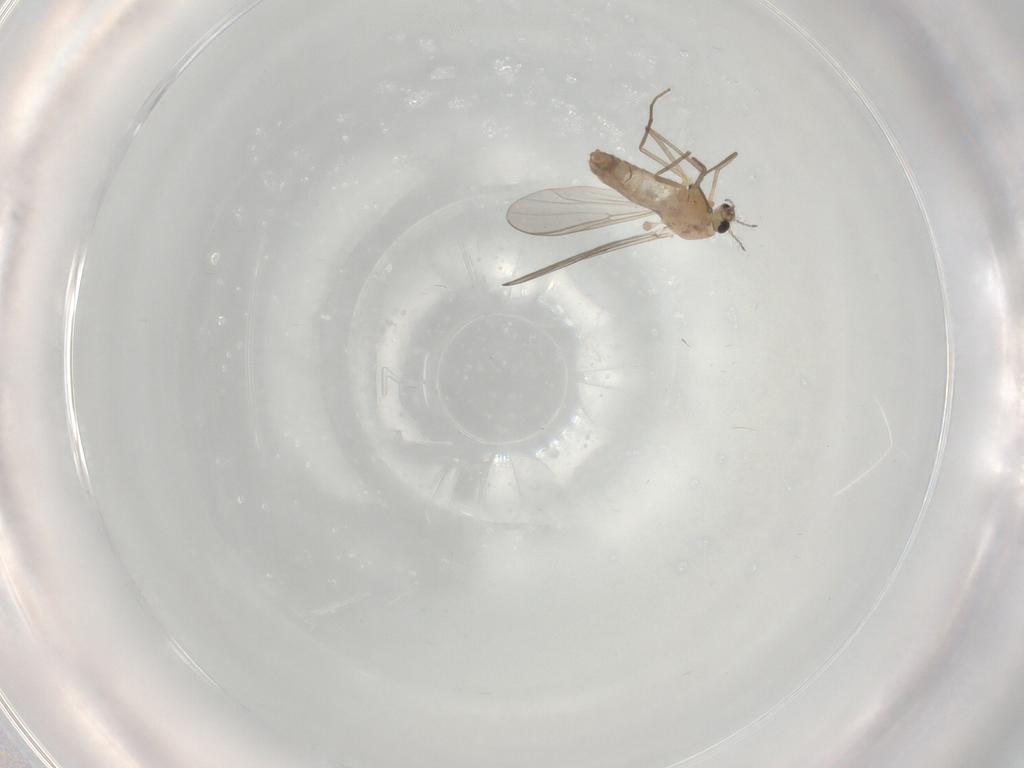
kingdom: Animalia
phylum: Arthropoda
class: Insecta
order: Diptera
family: Chironomidae
